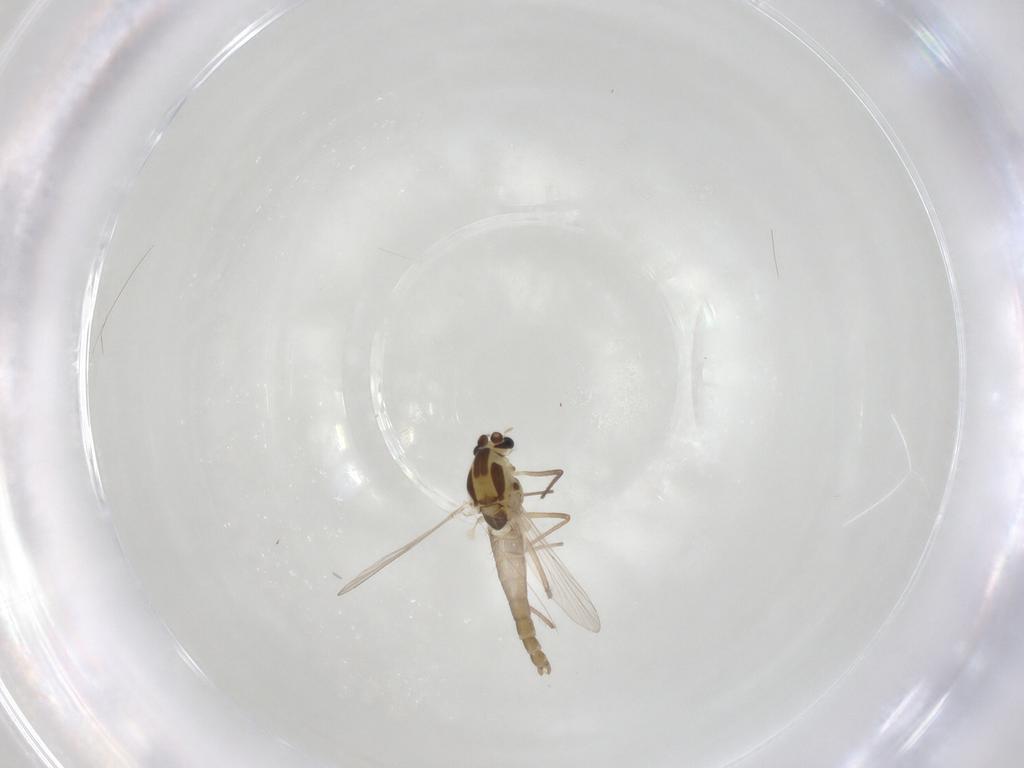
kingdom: Animalia
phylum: Arthropoda
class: Insecta
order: Diptera
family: Chironomidae
